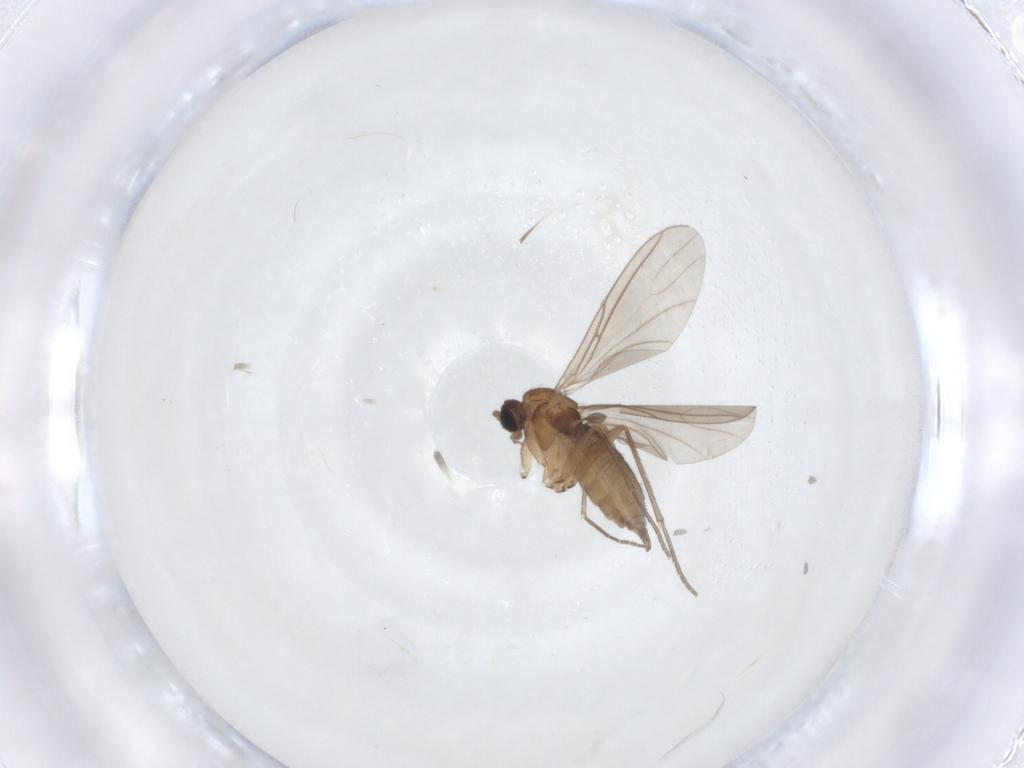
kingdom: Animalia
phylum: Arthropoda
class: Insecta
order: Diptera
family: Sciaridae
